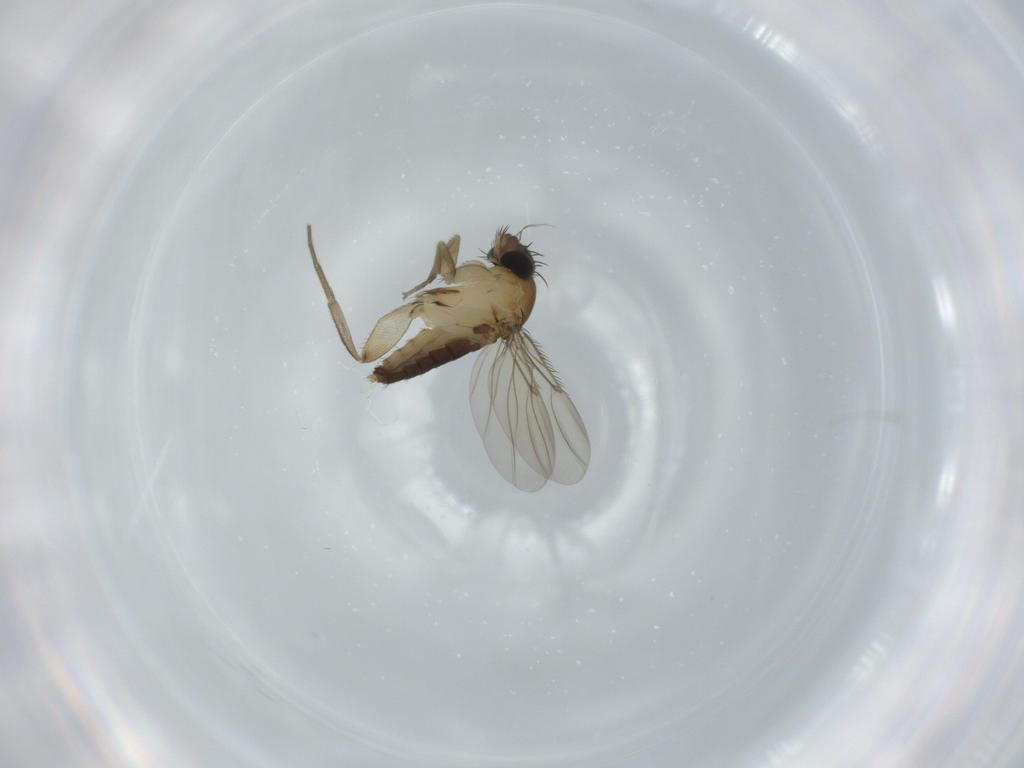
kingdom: Animalia
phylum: Arthropoda
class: Insecta
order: Diptera
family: Phoridae
